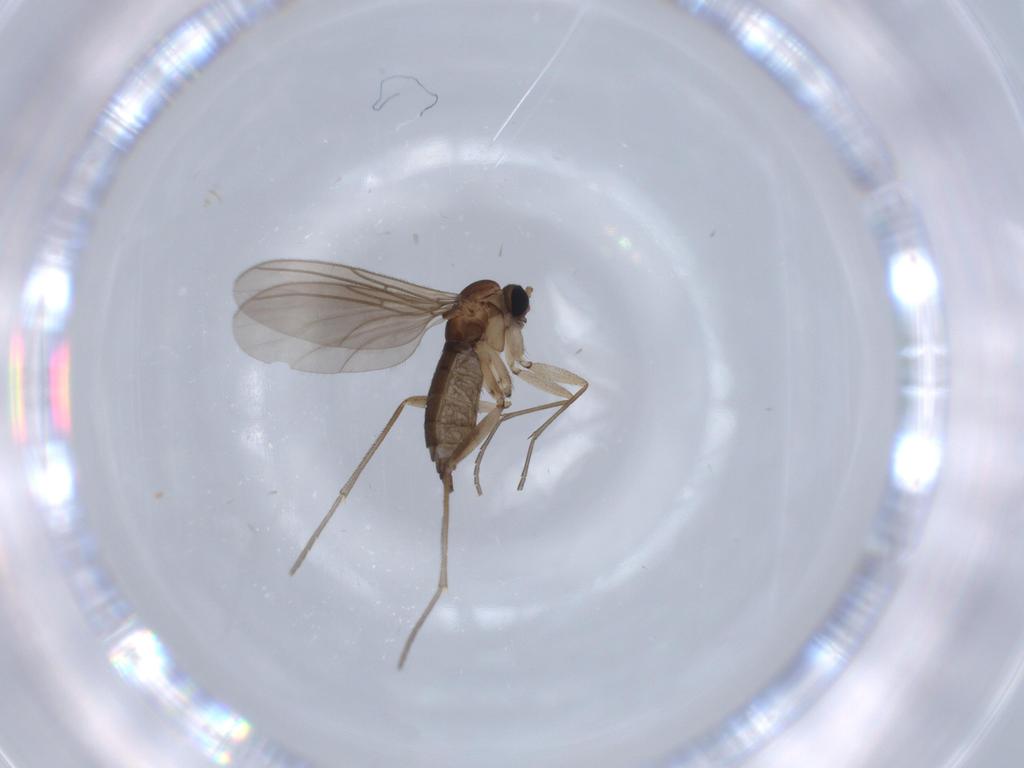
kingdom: Animalia
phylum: Arthropoda
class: Insecta
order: Diptera
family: Sciaridae
